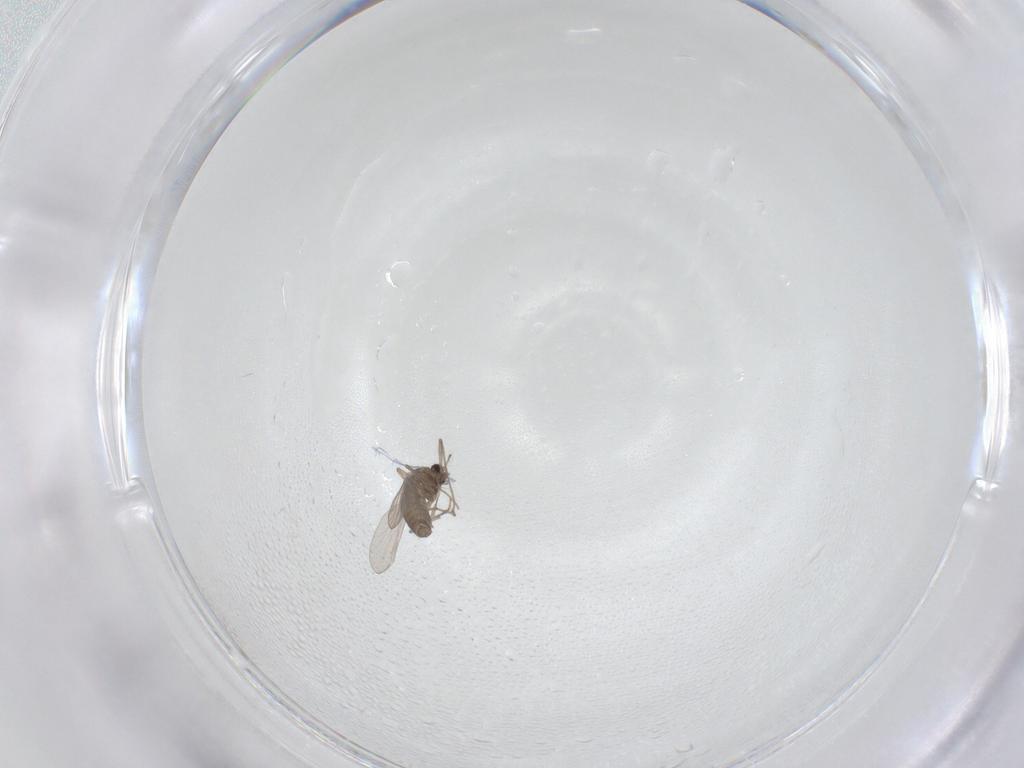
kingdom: Animalia
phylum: Arthropoda
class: Insecta
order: Diptera
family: Chironomidae
